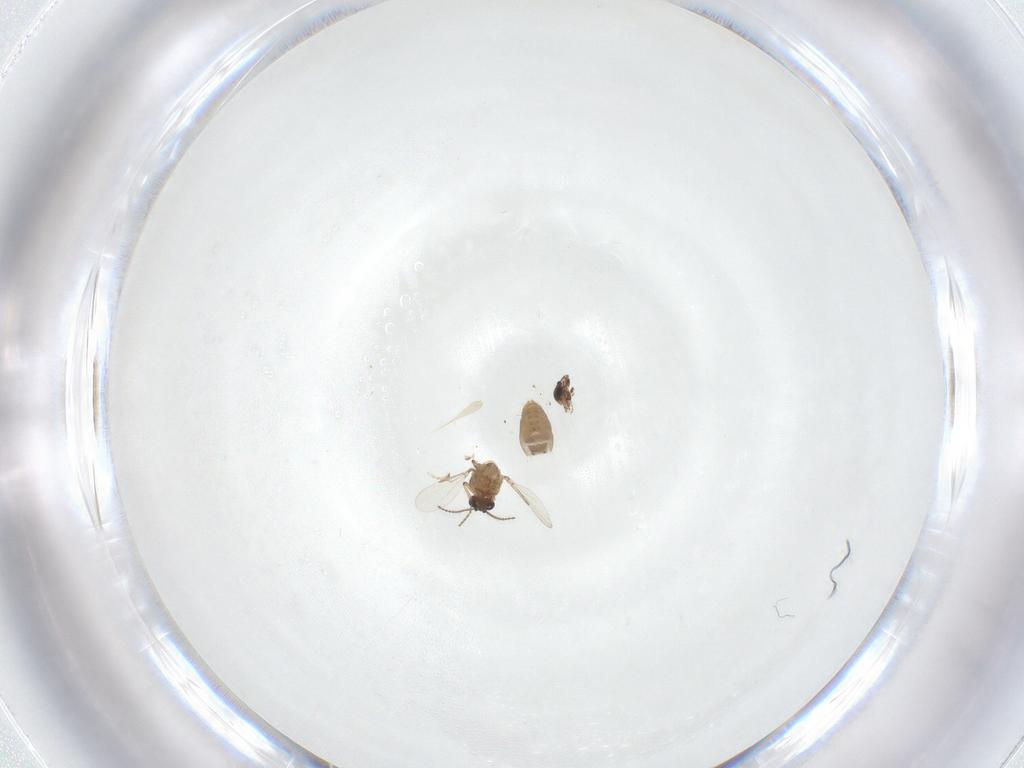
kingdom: Animalia
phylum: Arthropoda
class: Insecta
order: Diptera
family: Ceratopogonidae
